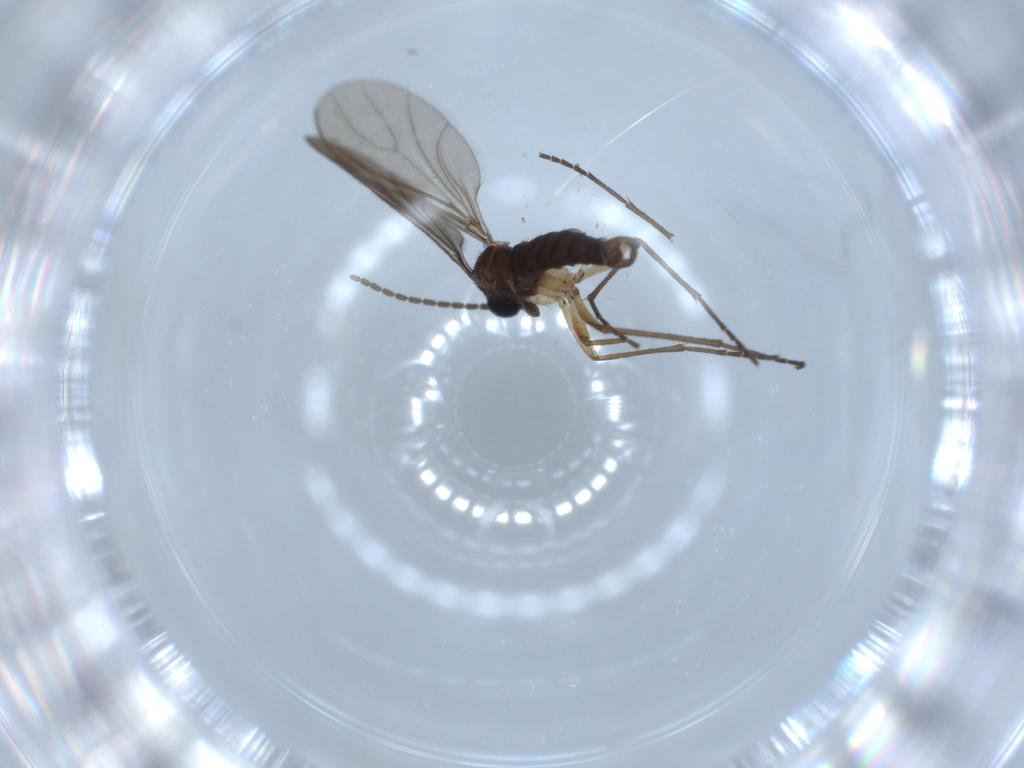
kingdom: Animalia
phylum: Arthropoda
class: Insecta
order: Diptera
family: Sciaridae
